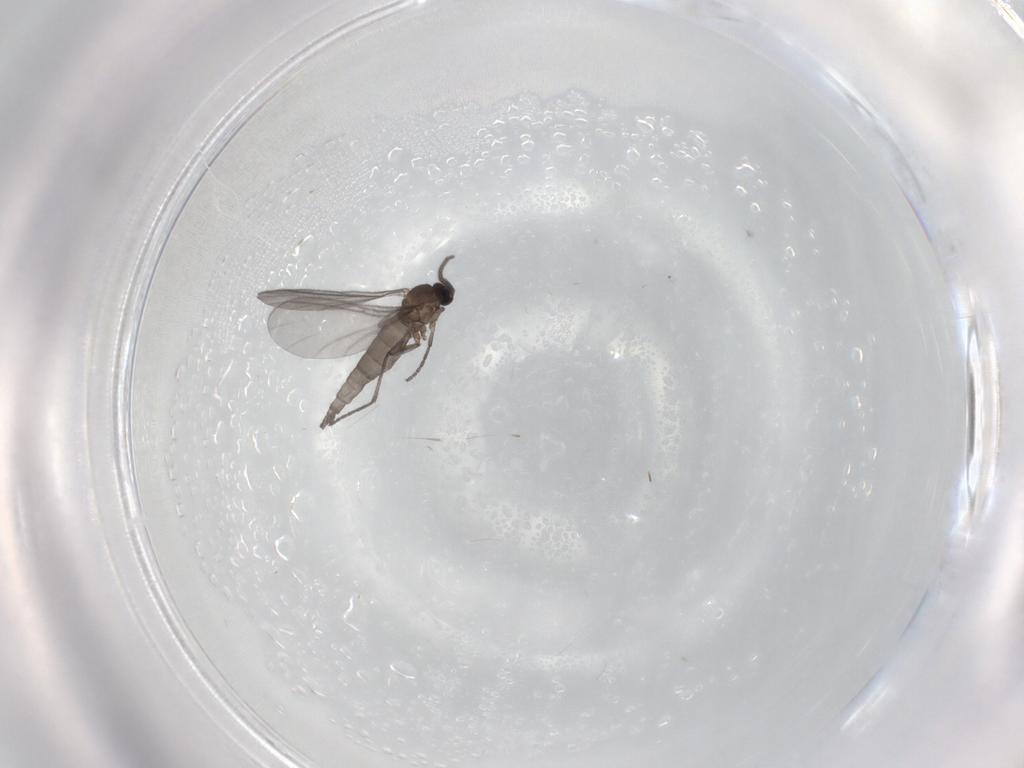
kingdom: Animalia
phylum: Arthropoda
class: Insecta
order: Diptera
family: Sciaridae
